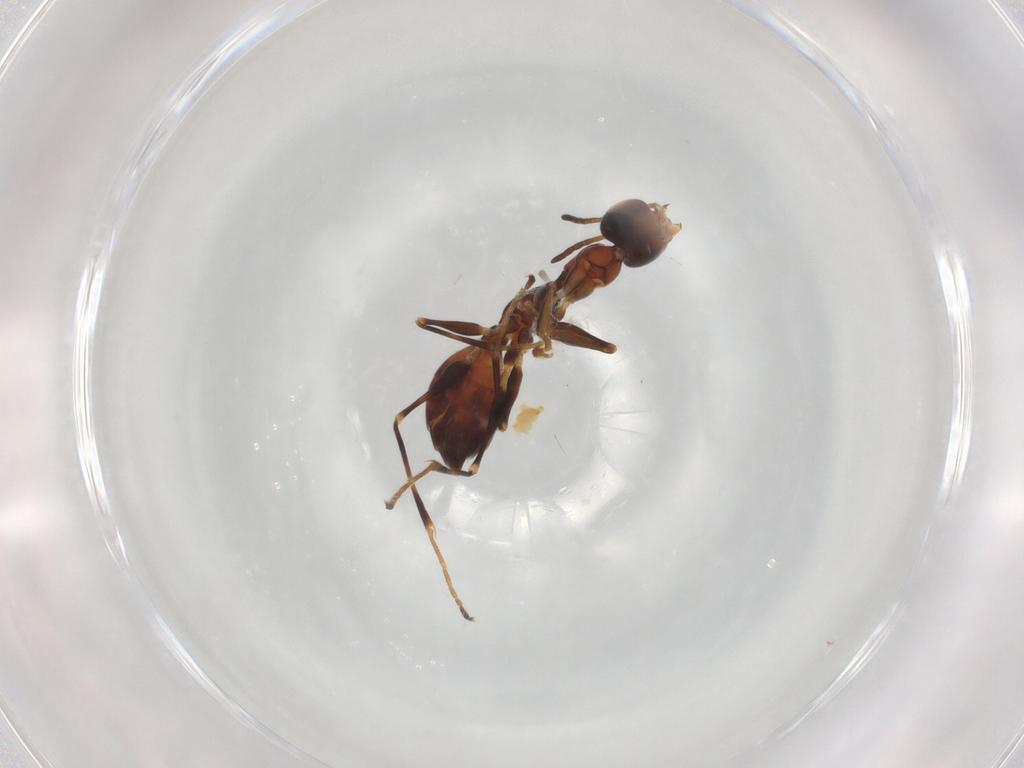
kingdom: Animalia
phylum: Arthropoda
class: Insecta
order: Hymenoptera
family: Dryinidae
